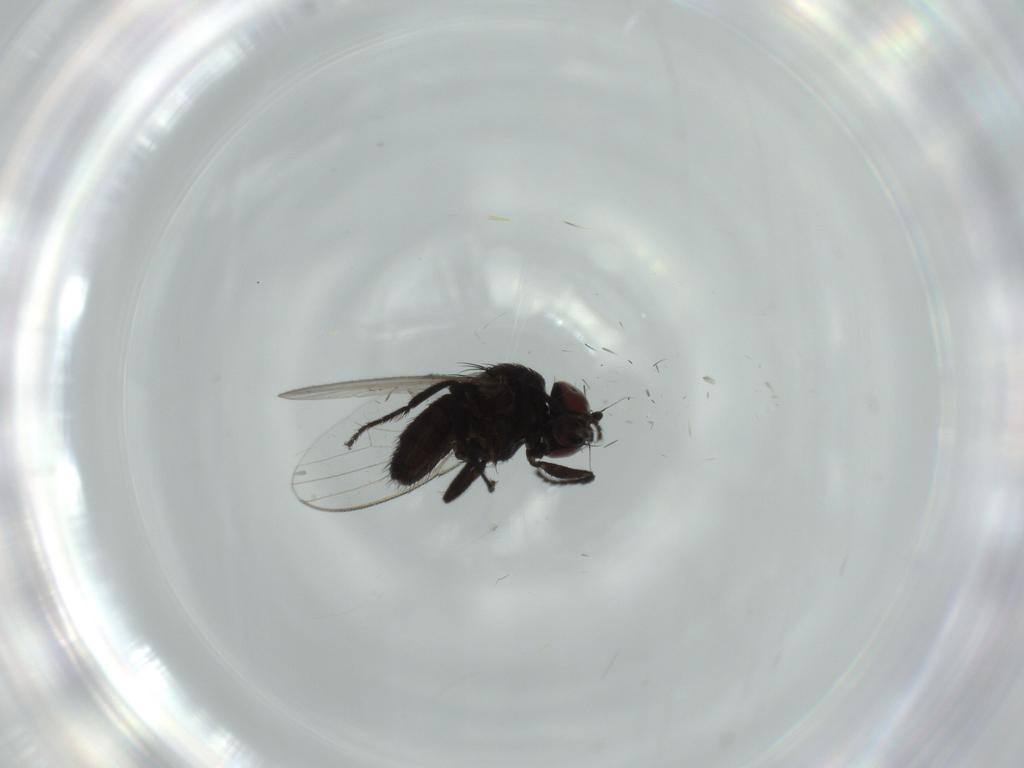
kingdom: Animalia
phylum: Arthropoda
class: Insecta
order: Diptera
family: Milichiidae
